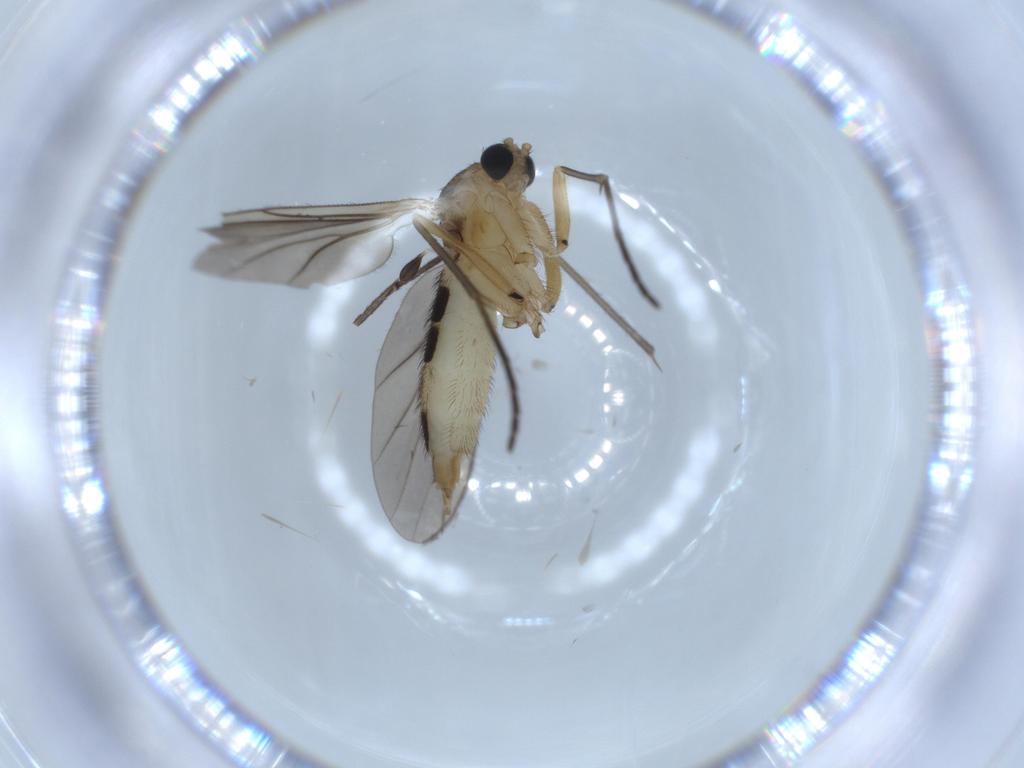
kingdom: Animalia
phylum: Arthropoda
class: Insecta
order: Diptera
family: Sciaridae
